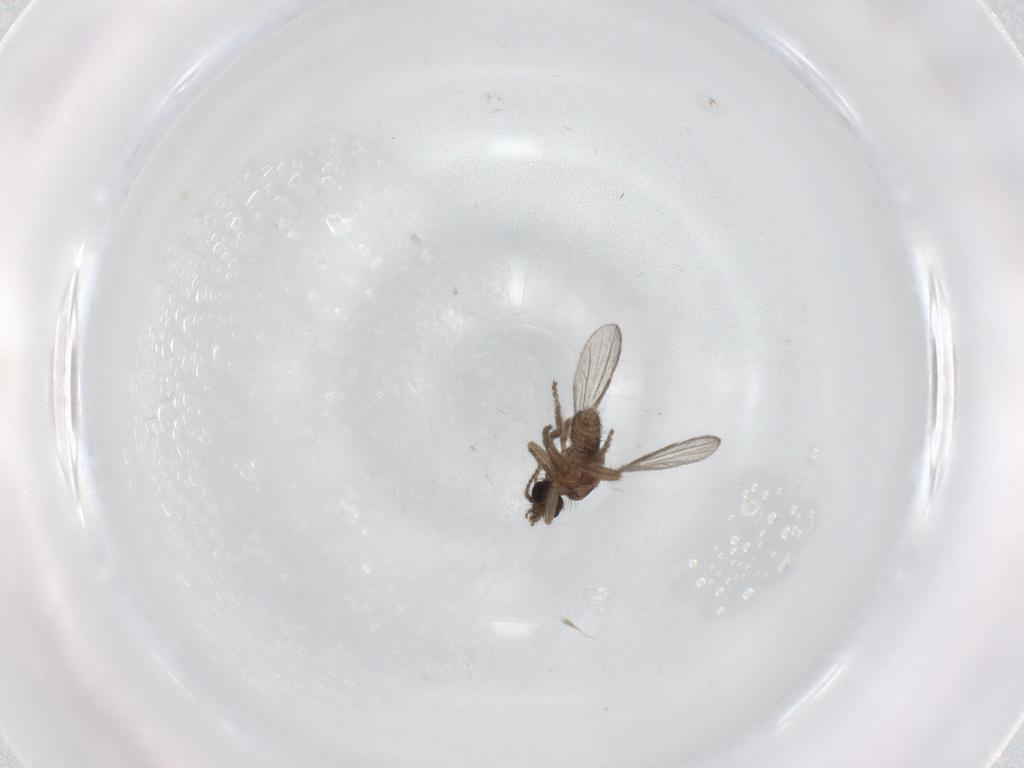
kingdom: Animalia
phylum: Arthropoda
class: Insecta
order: Diptera
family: Ceratopogonidae
